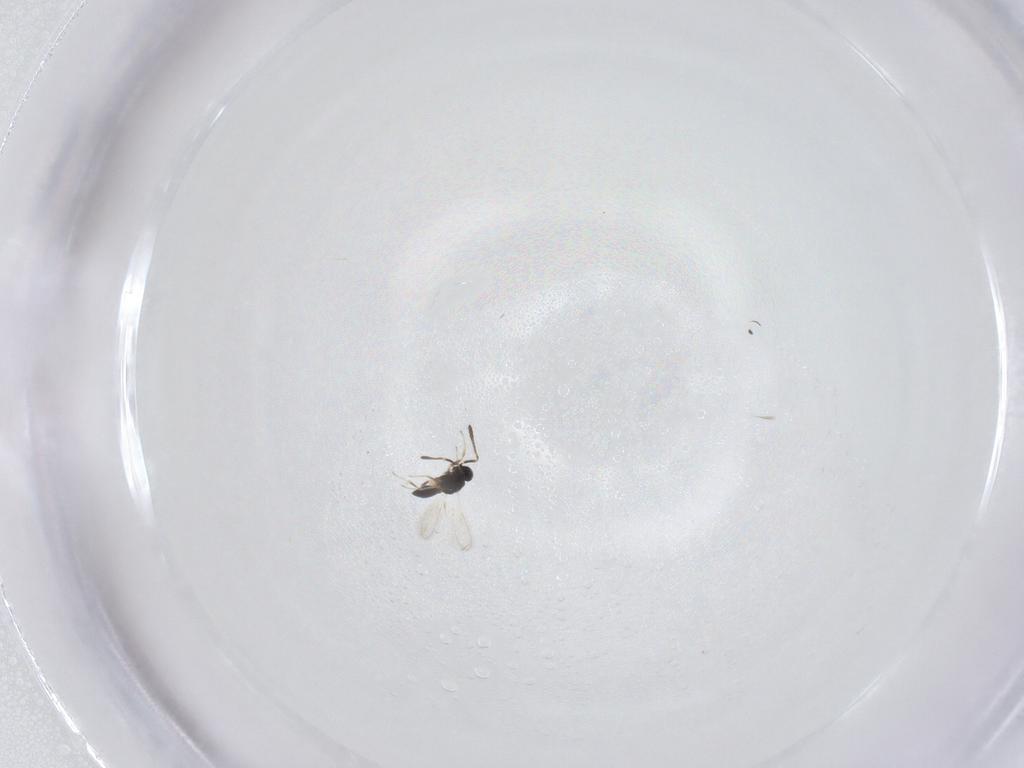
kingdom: Animalia
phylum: Arthropoda
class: Insecta
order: Hymenoptera
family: Scelionidae
